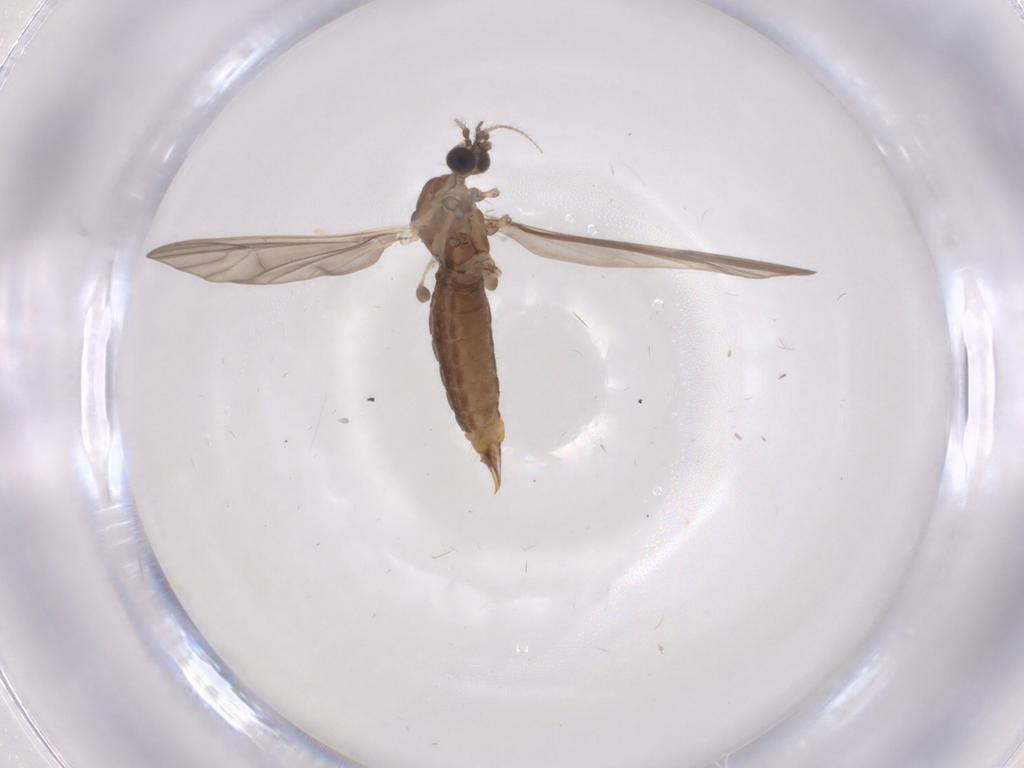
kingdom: Animalia
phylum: Arthropoda
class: Insecta
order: Diptera
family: Limoniidae
